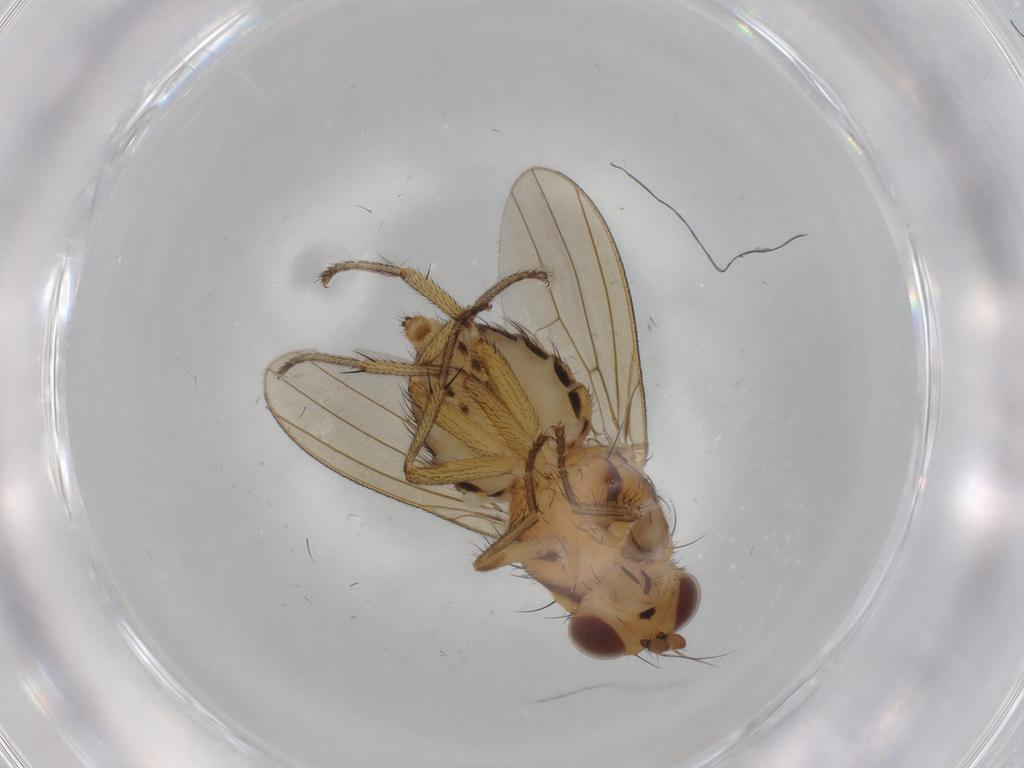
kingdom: Animalia
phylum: Arthropoda
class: Insecta
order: Diptera
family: Lauxaniidae
